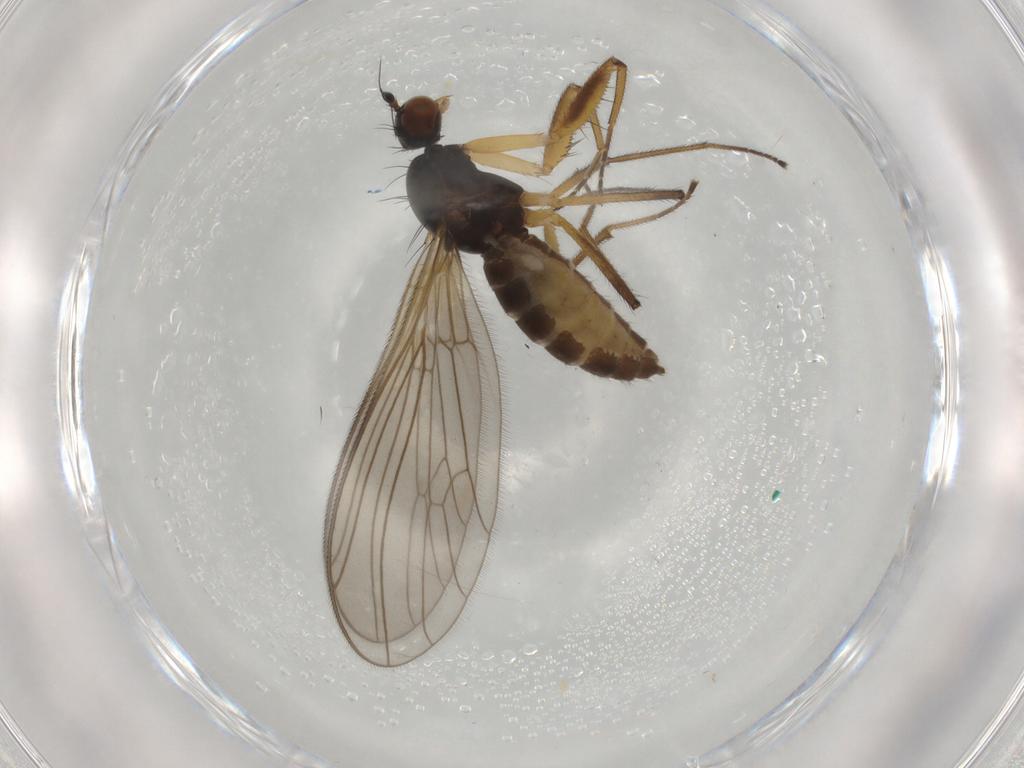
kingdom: Animalia
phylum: Arthropoda
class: Insecta
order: Diptera
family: Empididae
